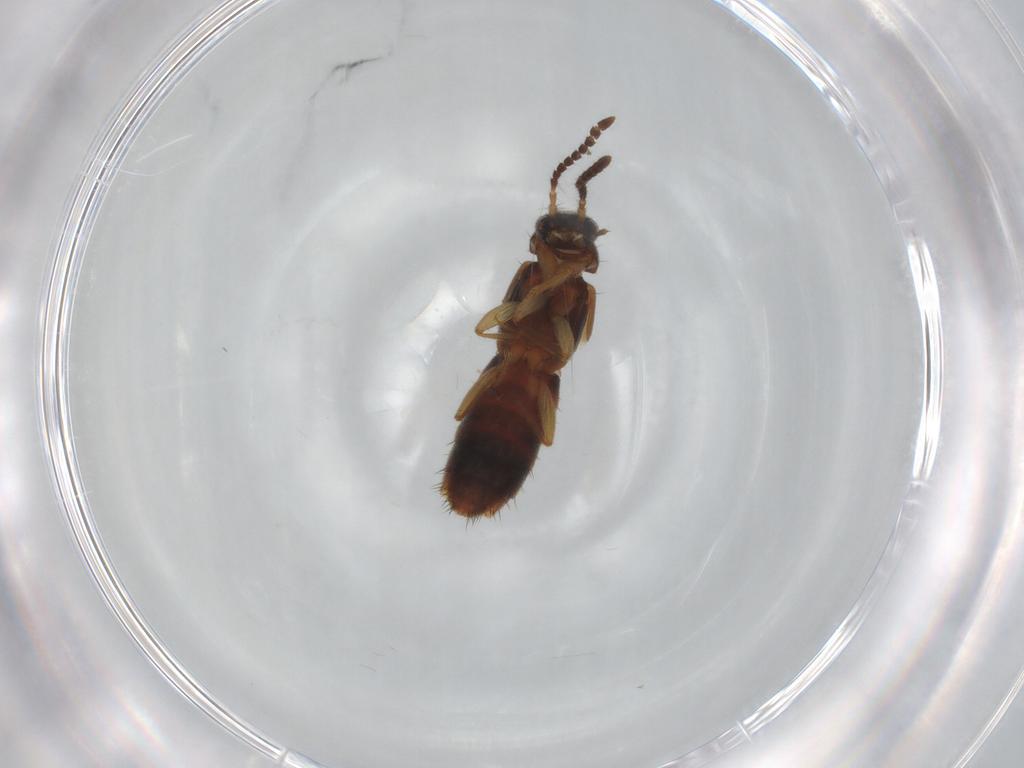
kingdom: Animalia
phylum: Arthropoda
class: Insecta
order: Coleoptera
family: Staphylinidae
